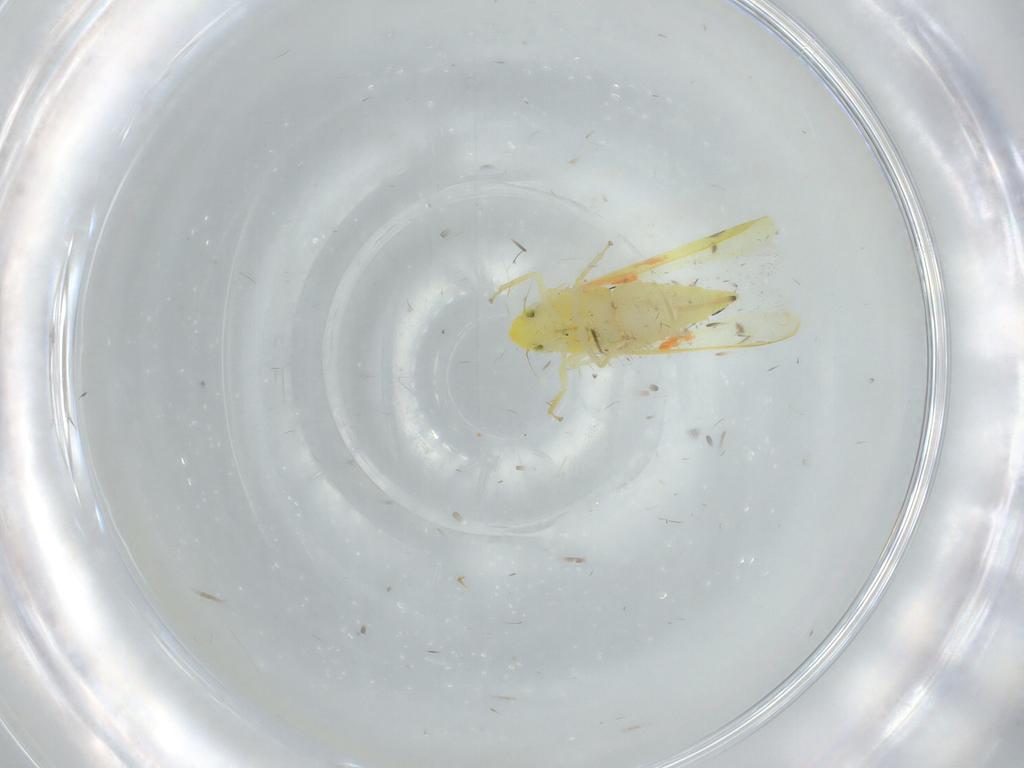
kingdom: Animalia
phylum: Arthropoda
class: Insecta
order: Hemiptera
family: Cicadellidae
